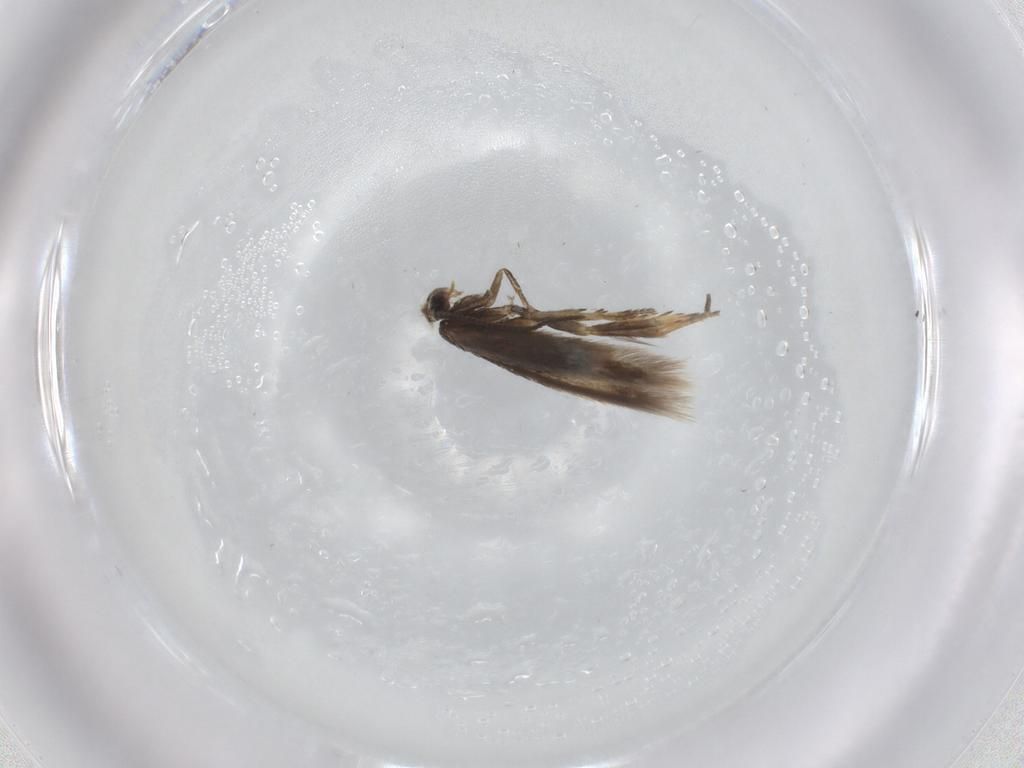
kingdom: Animalia
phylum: Arthropoda
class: Insecta
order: Lepidoptera
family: Nepticulidae
